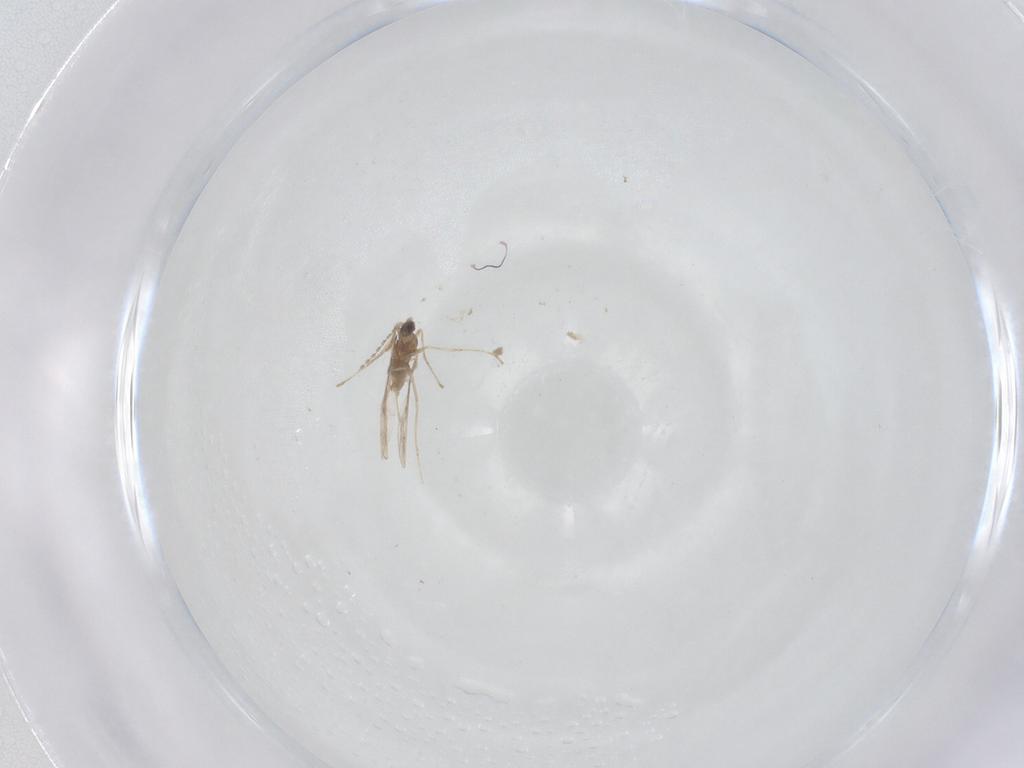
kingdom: Animalia
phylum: Arthropoda
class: Insecta
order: Diptera
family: Cecidomyiidae
